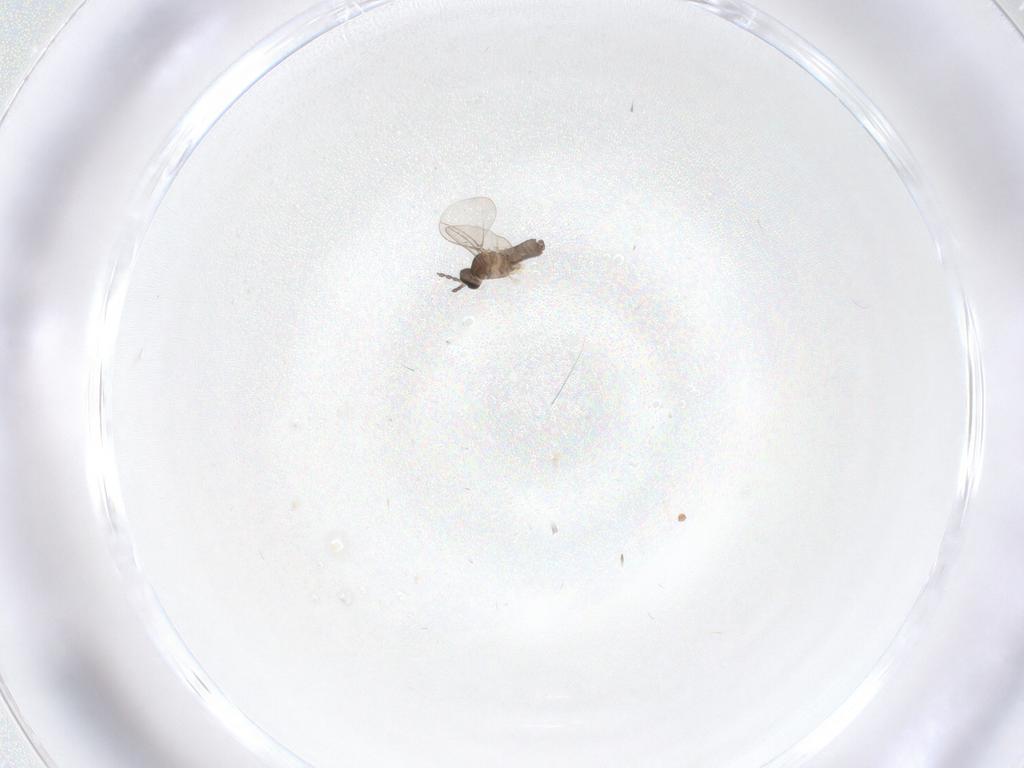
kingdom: Animalia
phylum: Arthropoda
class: Insecta
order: Diptera
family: Cecidomyiidae
